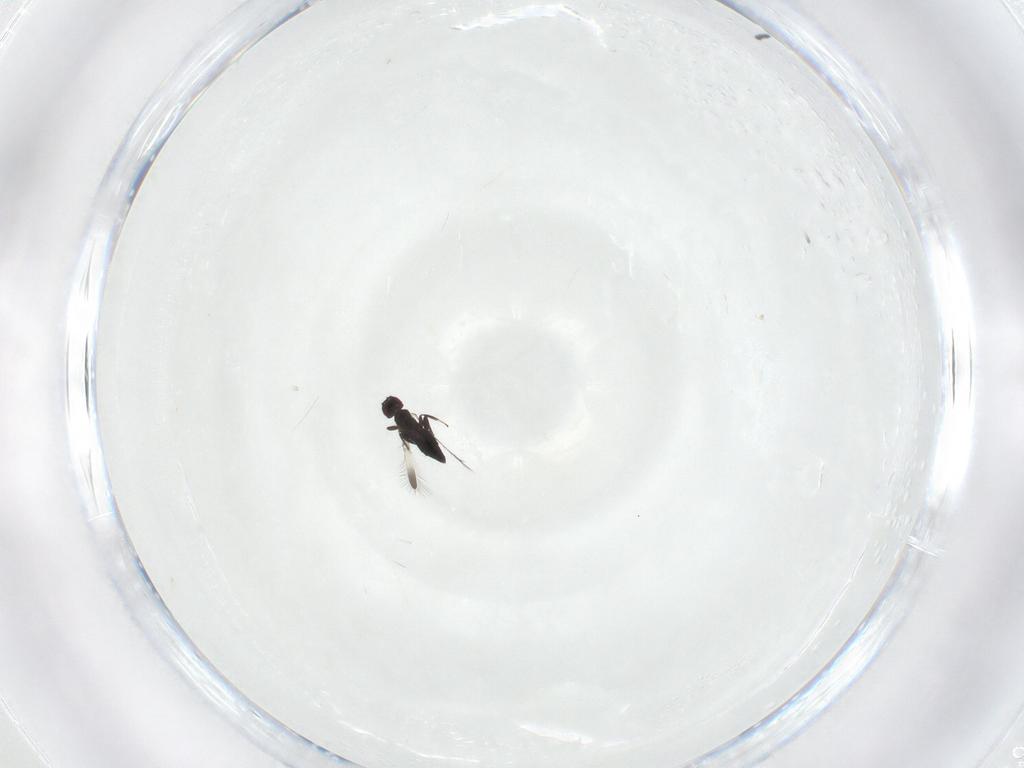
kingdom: Animalia
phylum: Arthropoda
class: Insecta
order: Hymenoptera
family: Mymaridae
